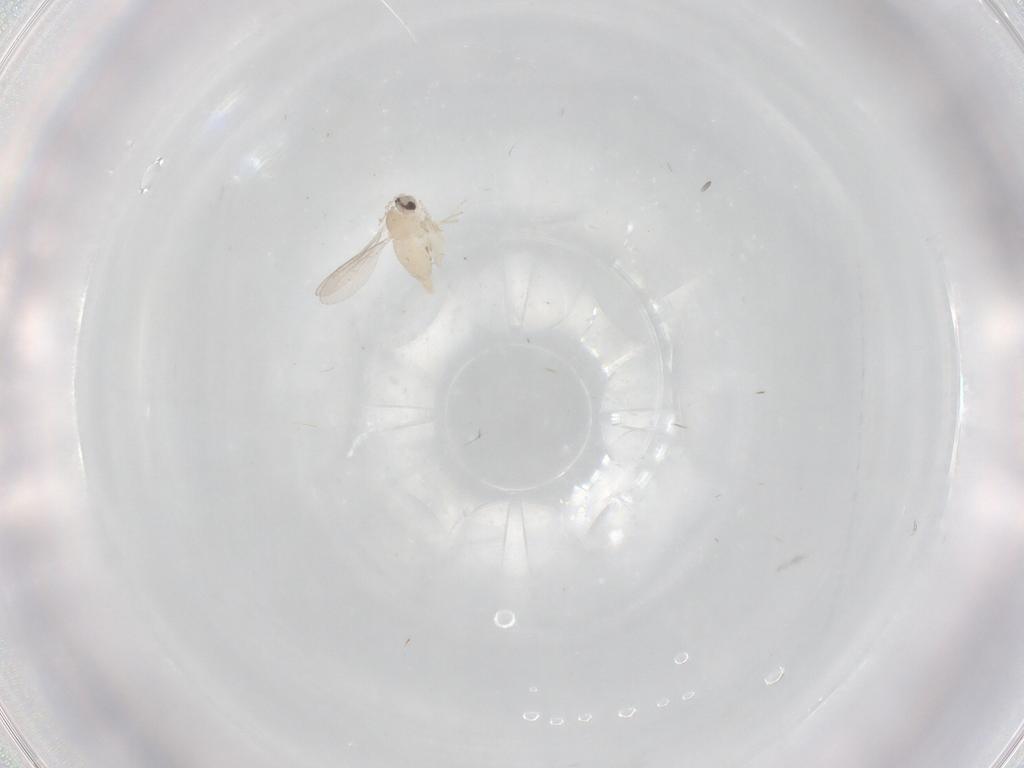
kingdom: Animalia
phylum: Arthropoda
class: Insecta
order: Diptera
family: Cecidomyiidae
